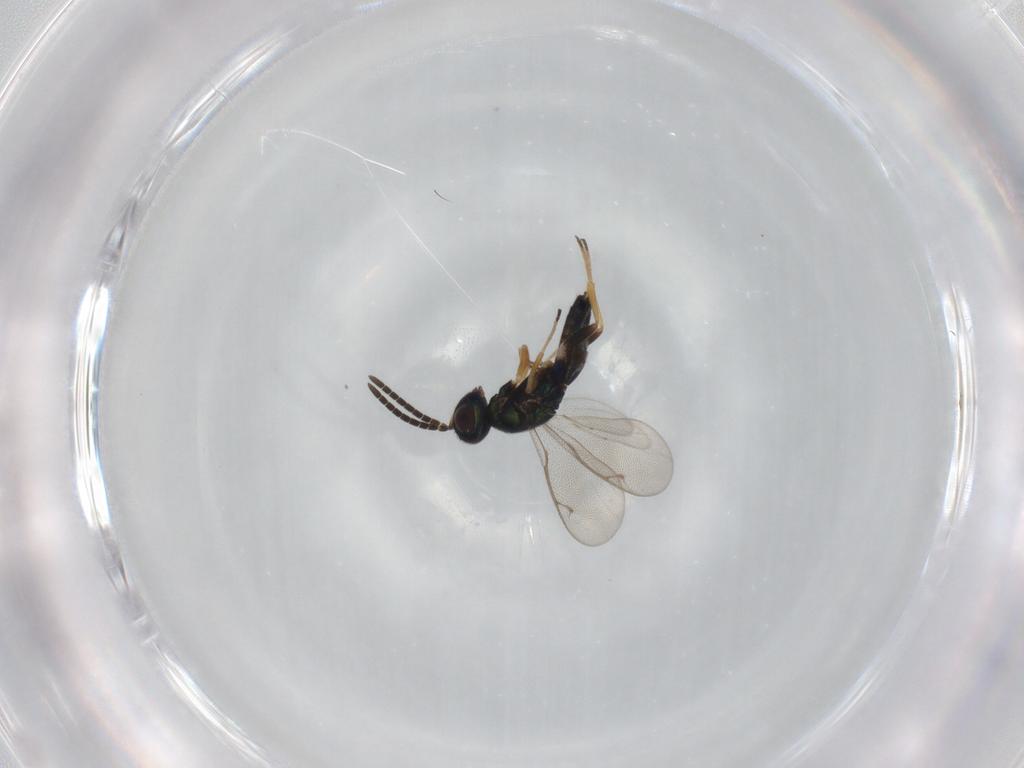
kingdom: Animalia
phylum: Arthropoda
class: Insecta
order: Hymenoptera
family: Eupelmidae
